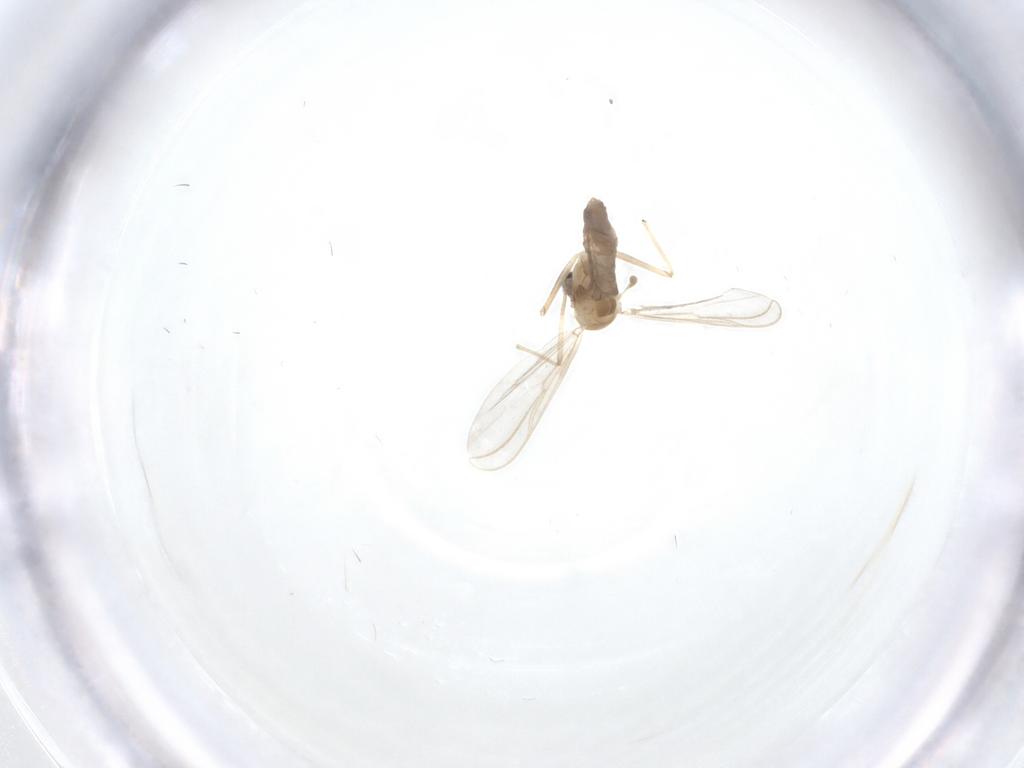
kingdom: Animalia
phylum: Arthropoda
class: Insecta
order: Diptera
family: Chironomidae
